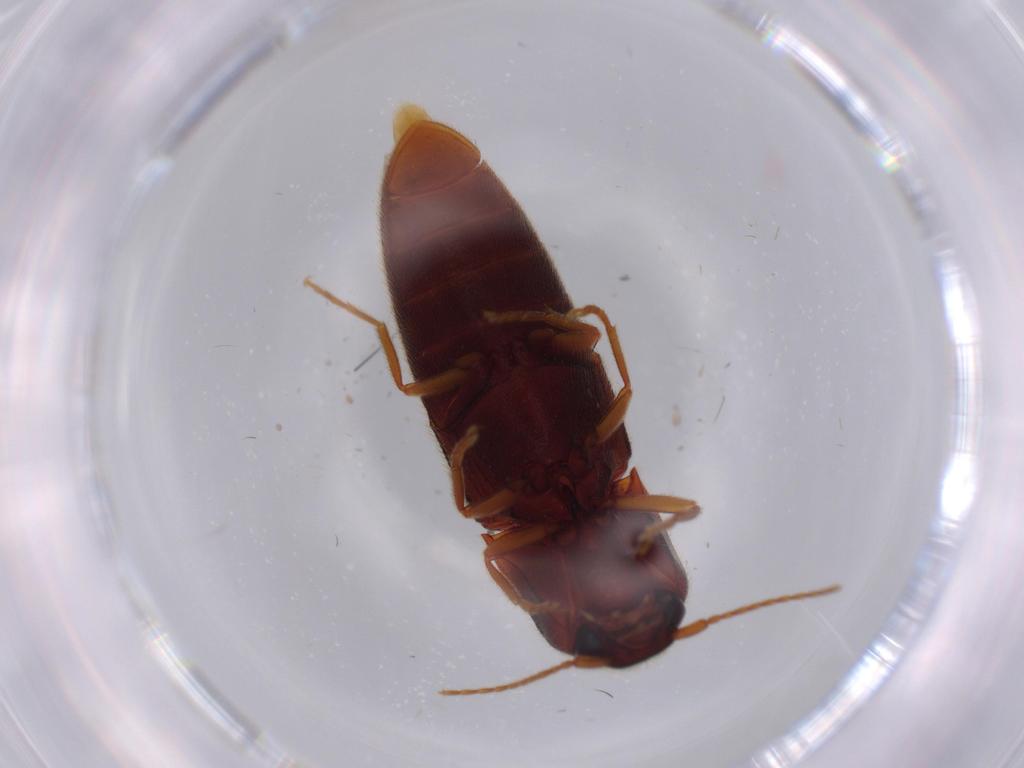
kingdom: Animalia
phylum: Arthropoda
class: Insecta
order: Coleoptera
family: Elateridae
